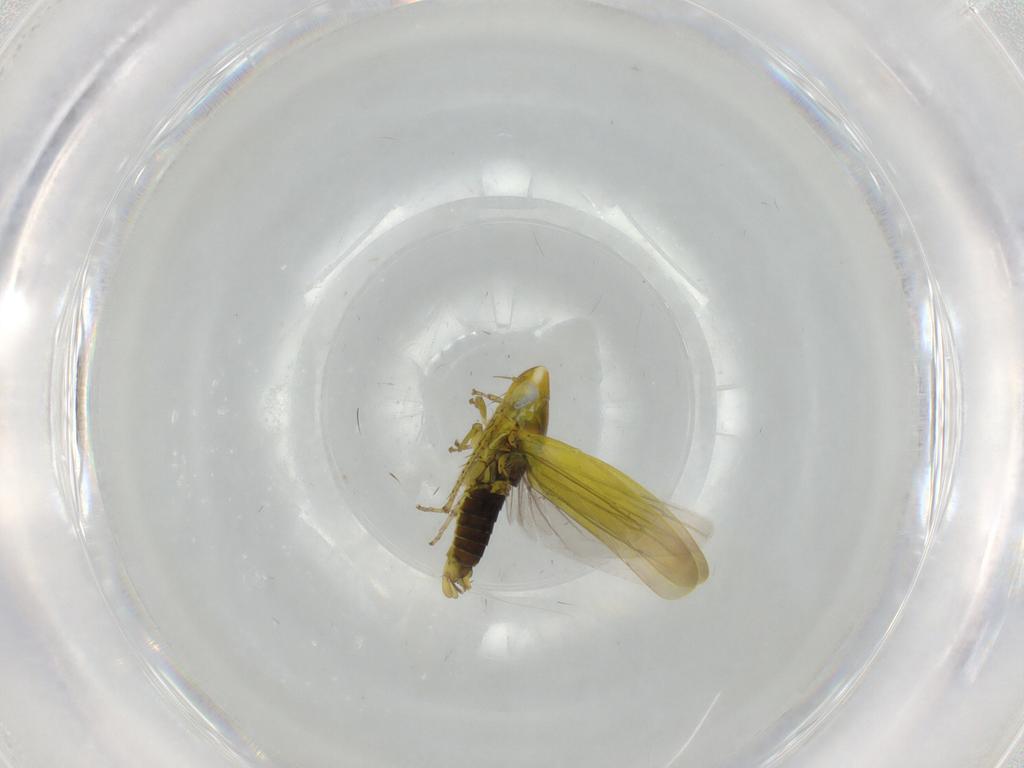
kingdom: Animalia
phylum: Arthropoda
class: Insecta
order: Hemiptera
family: Cicadellidae
